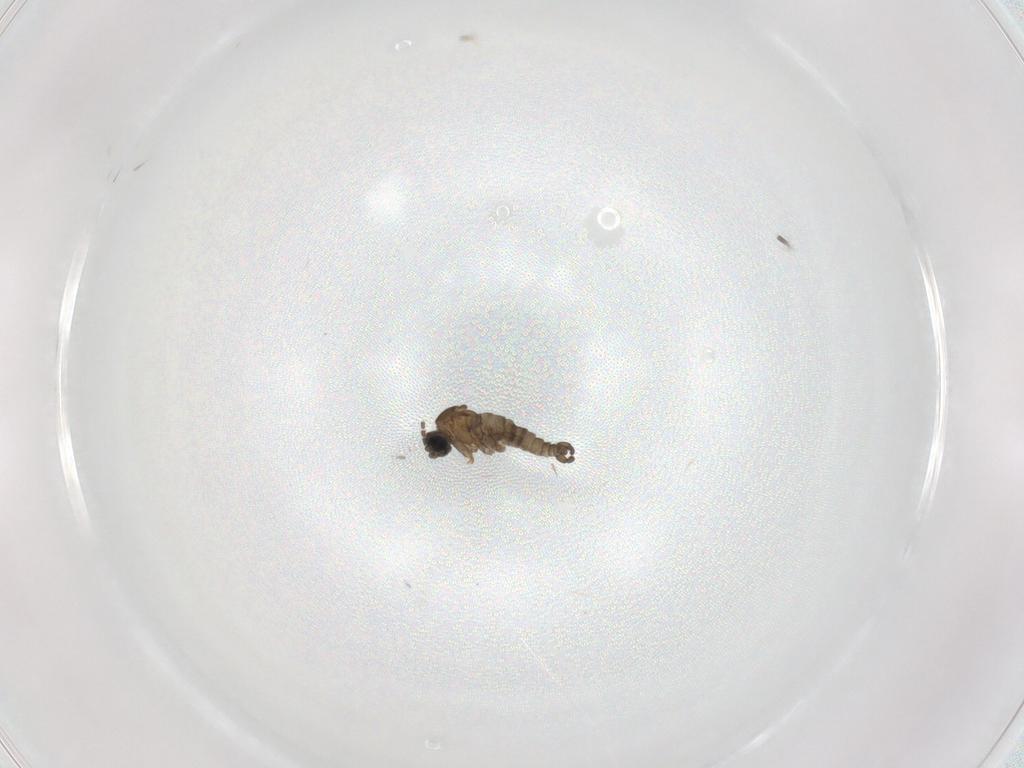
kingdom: Animalia
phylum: Arthropoda
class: Insecta
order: Diptera
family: Sciaridae
